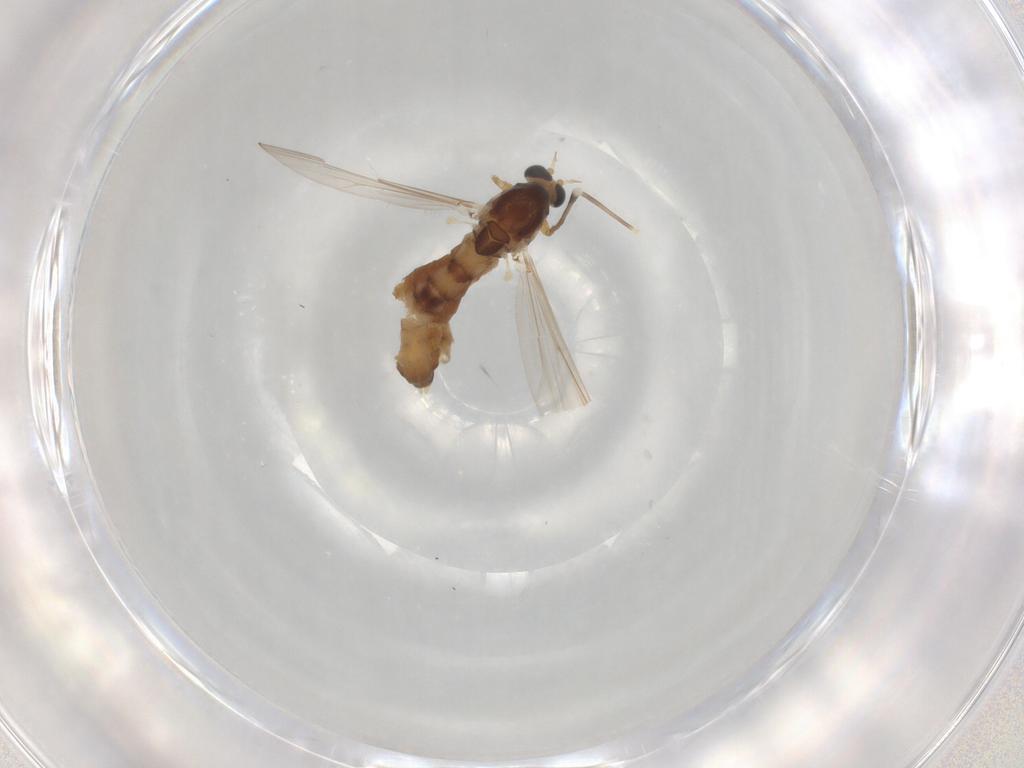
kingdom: Animalia
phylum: Arthropoda
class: Insecta
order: Diptera
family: Chironomidae
